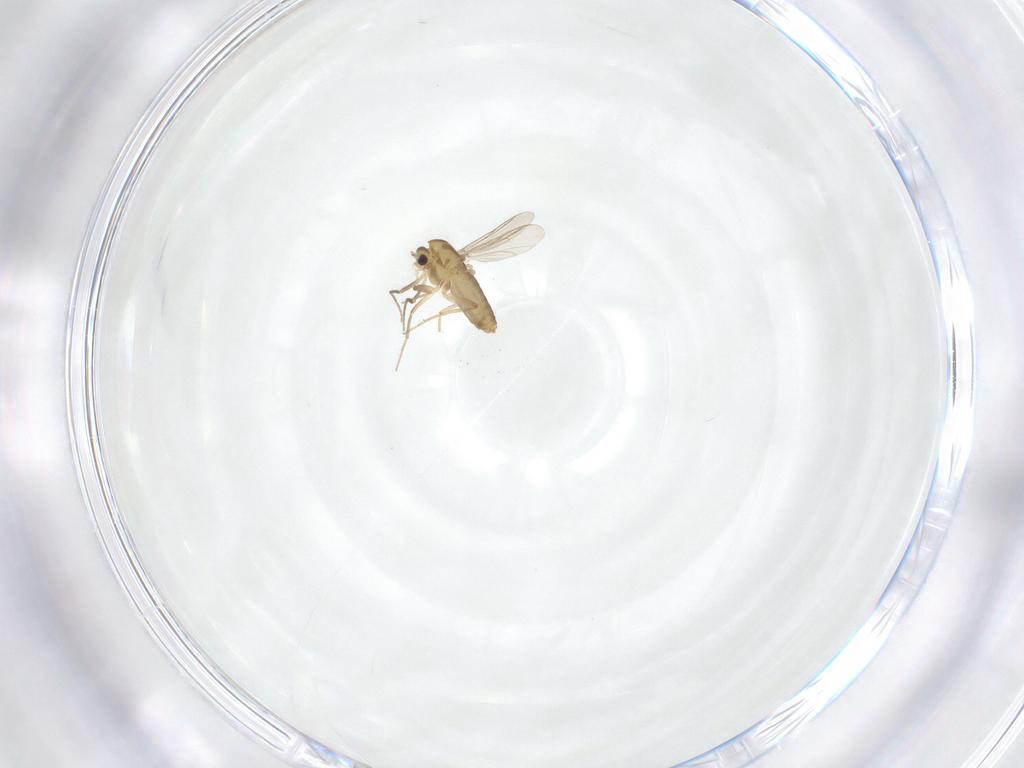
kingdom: Animalia
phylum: Arthropoda
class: Insecta
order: Diptera
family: Chironomidae
